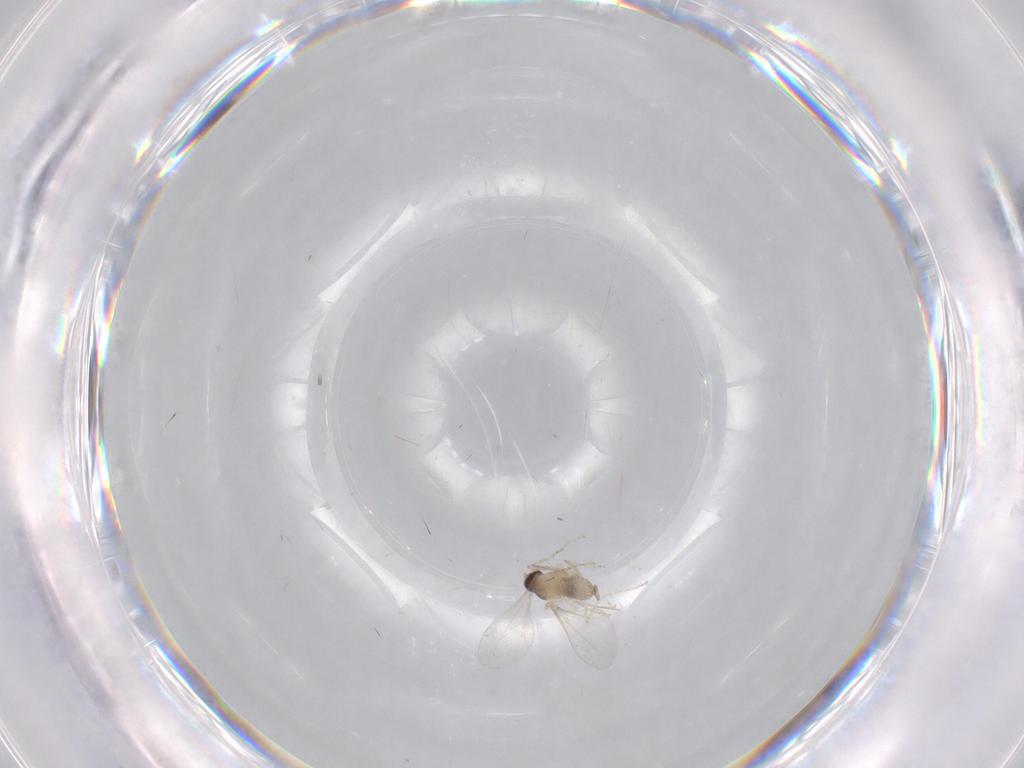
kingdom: Animalia
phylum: Arthropoda
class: Insecta
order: Diptera
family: Cecidomyiidae
